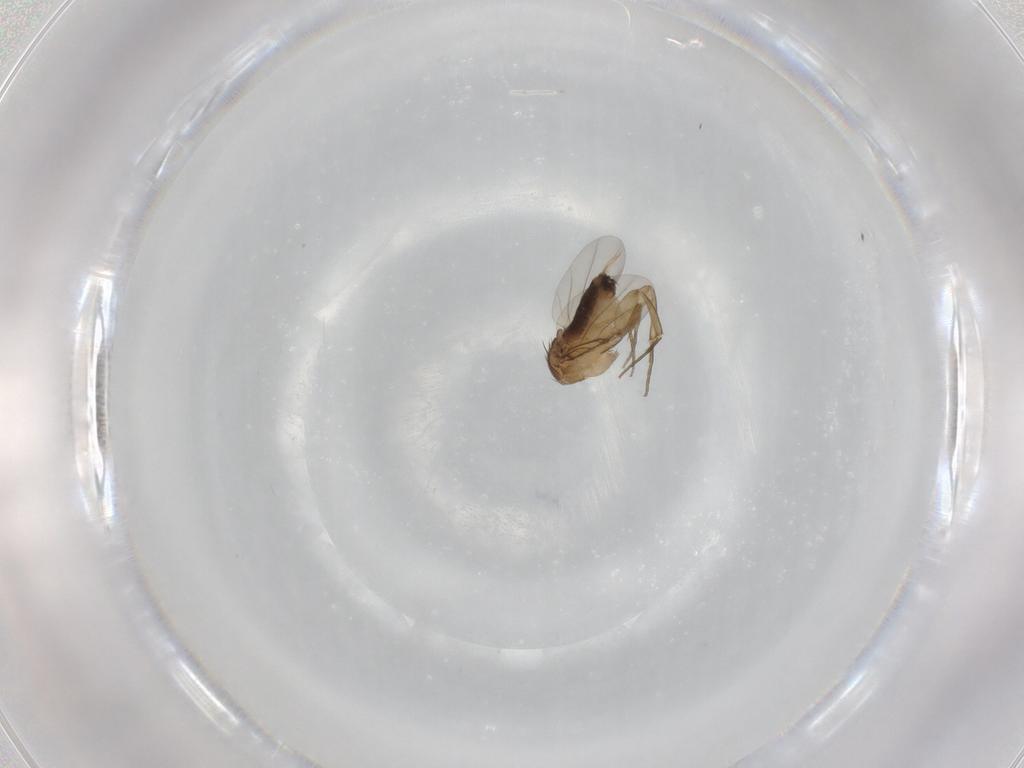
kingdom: Animalia
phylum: Arthropoda
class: Insecta
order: Diptera
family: Phoridae
